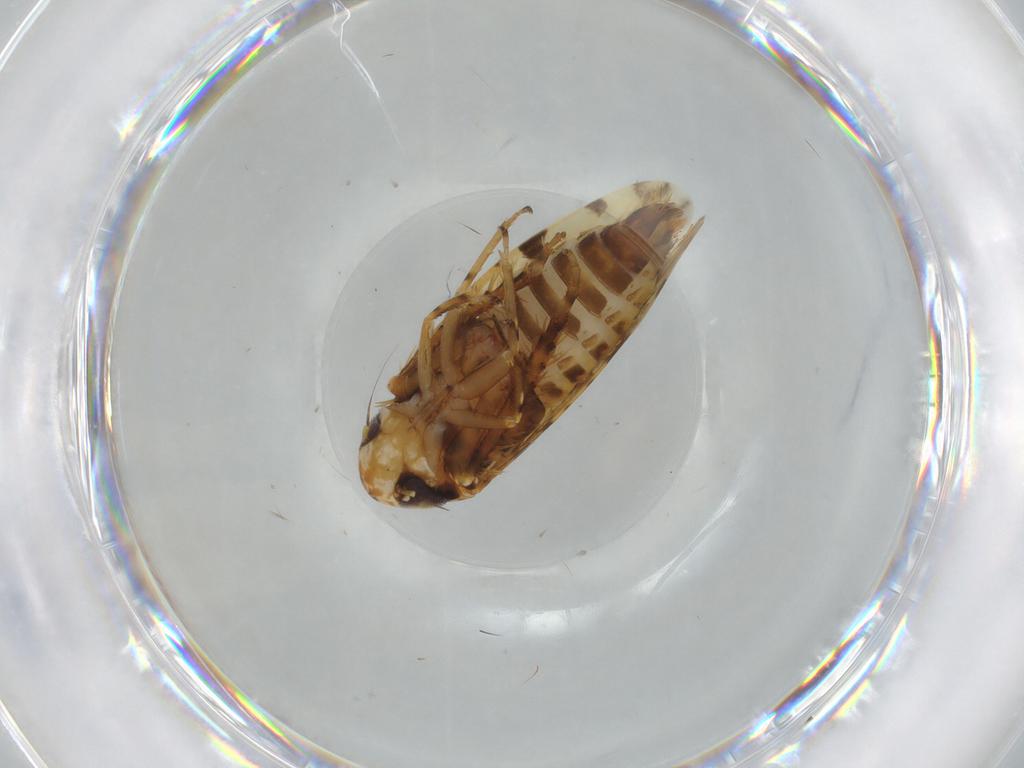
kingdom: Animalia
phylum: Arthropoda
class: Insecta
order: Hemiptera
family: Cicadellidae
